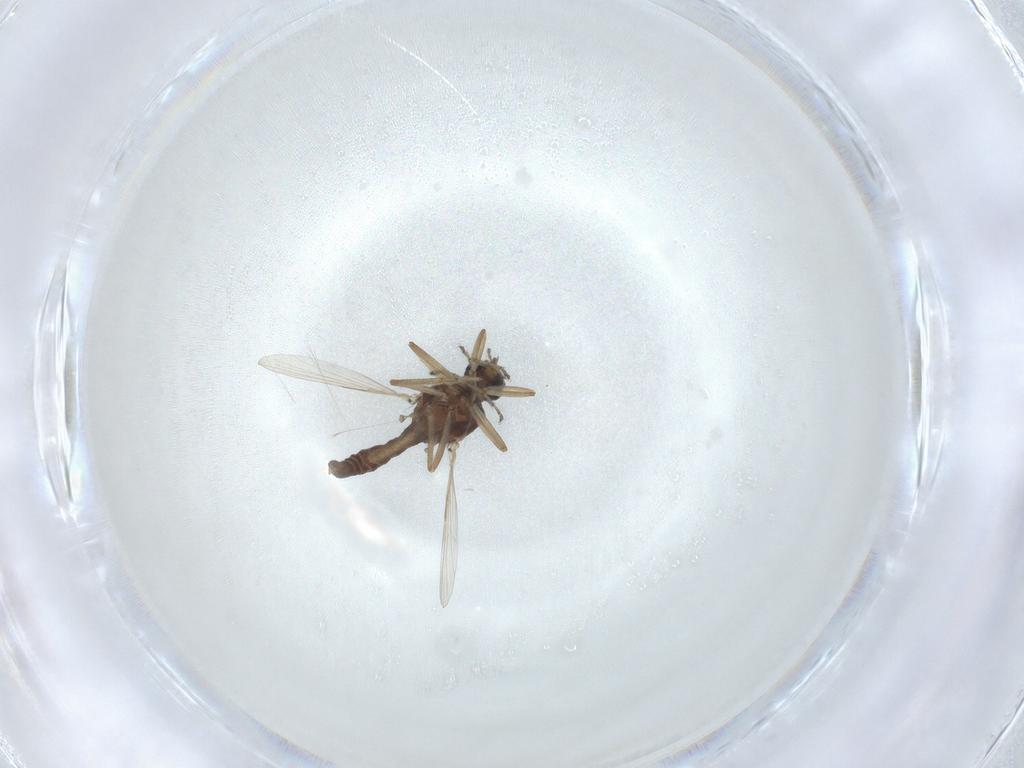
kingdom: Animalia
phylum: Arthropoda
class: Insecta
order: Diptera
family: Ceratopogonidae
